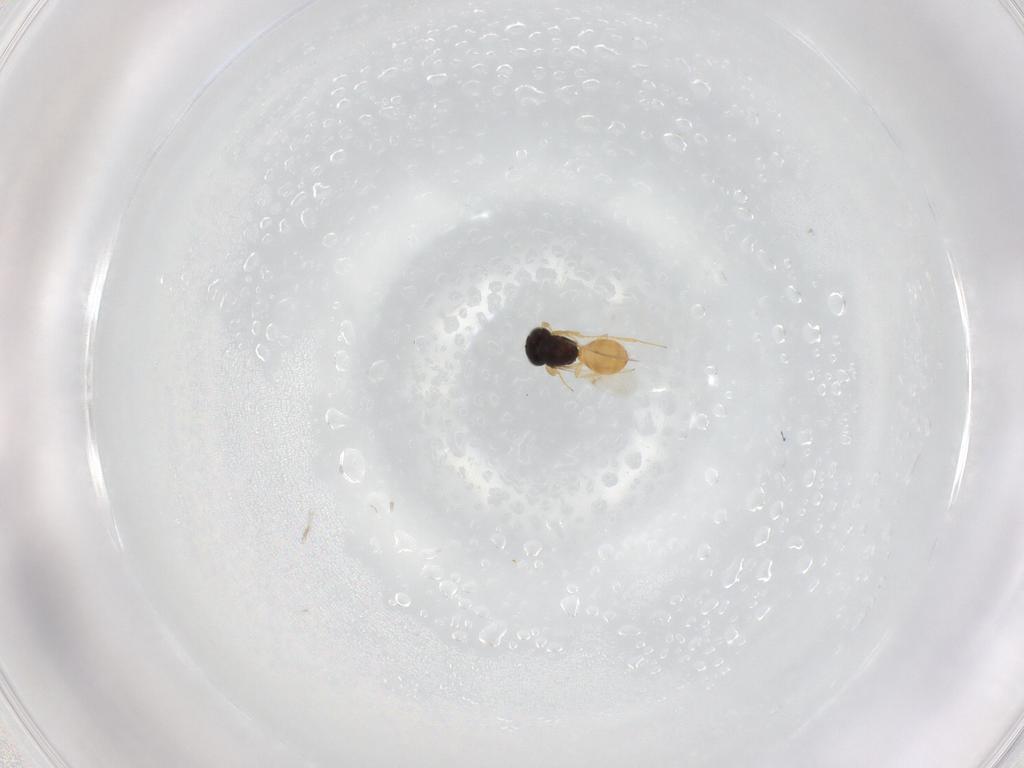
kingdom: Animalia
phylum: Arthropoda
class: Insecta
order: Hymenoptera
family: Scelionidae
